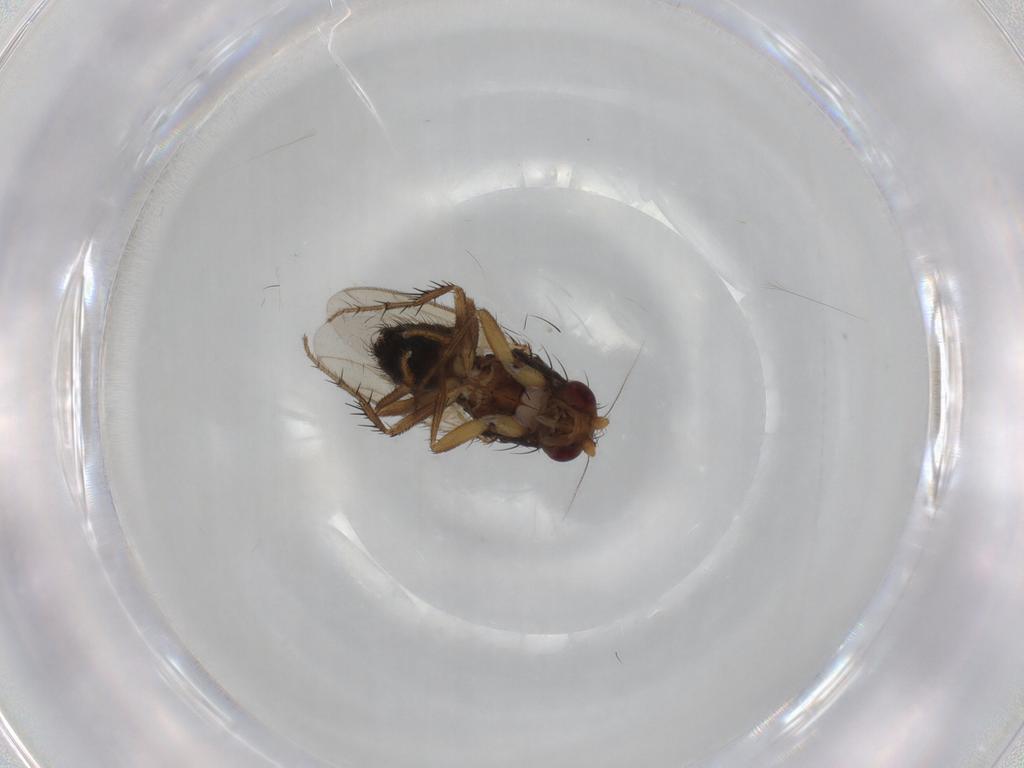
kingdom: Animalia
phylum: Arthropoda
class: Insecta
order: Diptera
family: Sphaeroceridae
